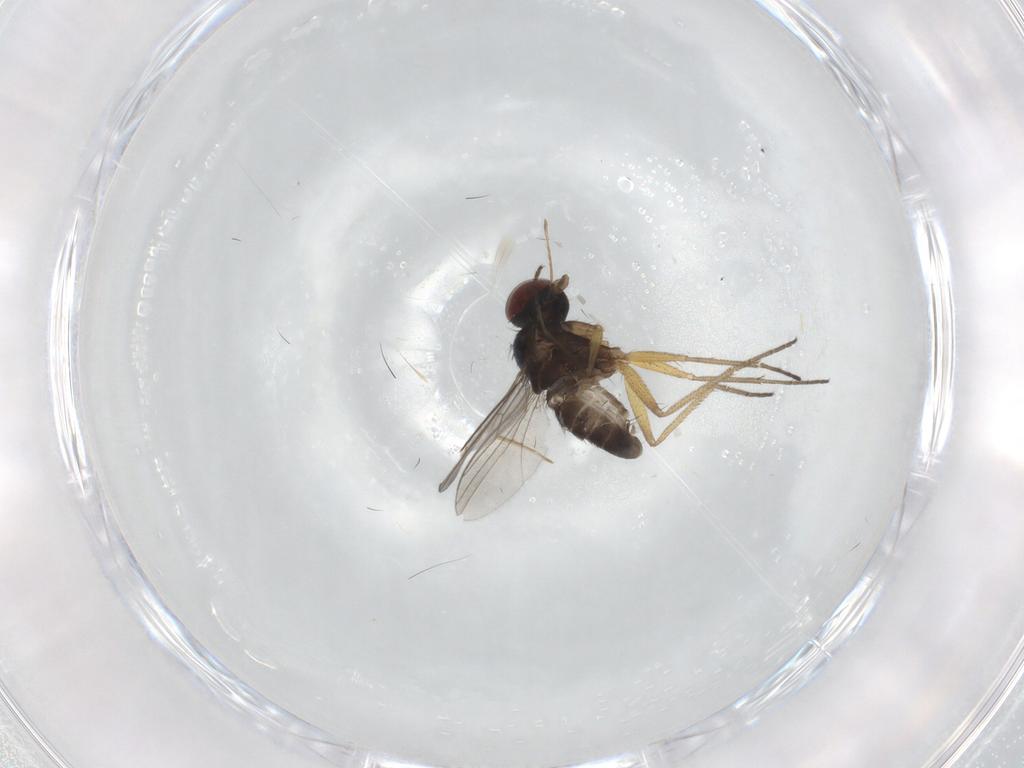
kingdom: Animalia
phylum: Arthropoda
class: Insecta
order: Diptera
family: Dolichopodidae
